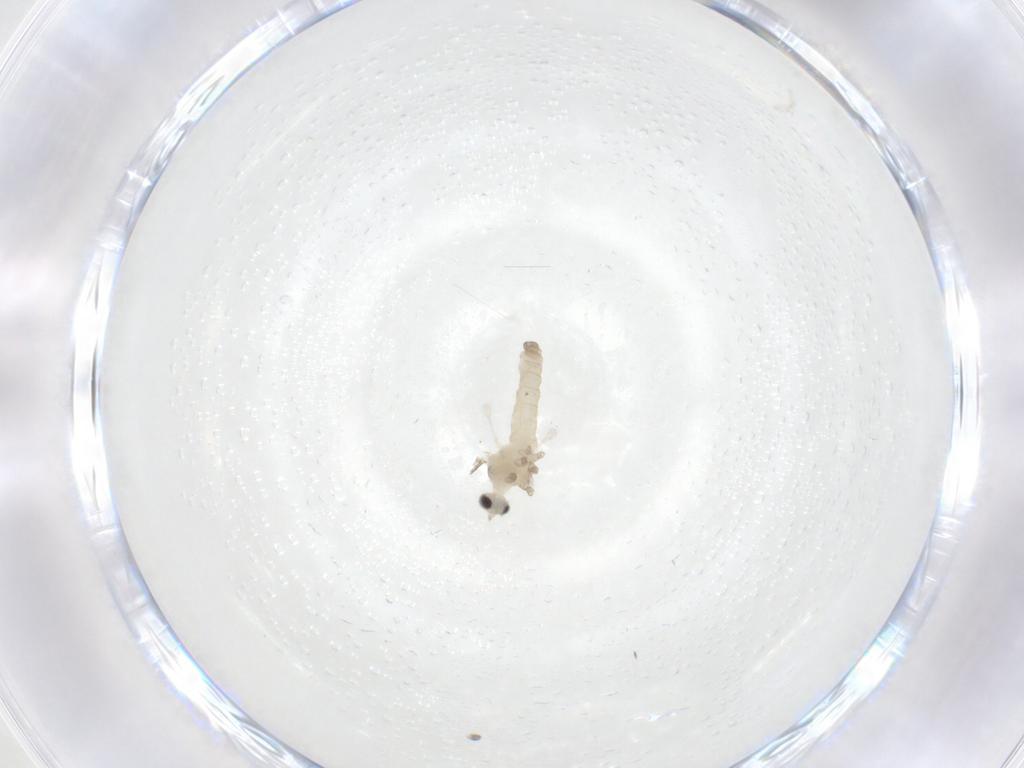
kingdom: Animalia
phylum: Arthropoda
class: Insecta
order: Diptera
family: Cecidomyiidae
